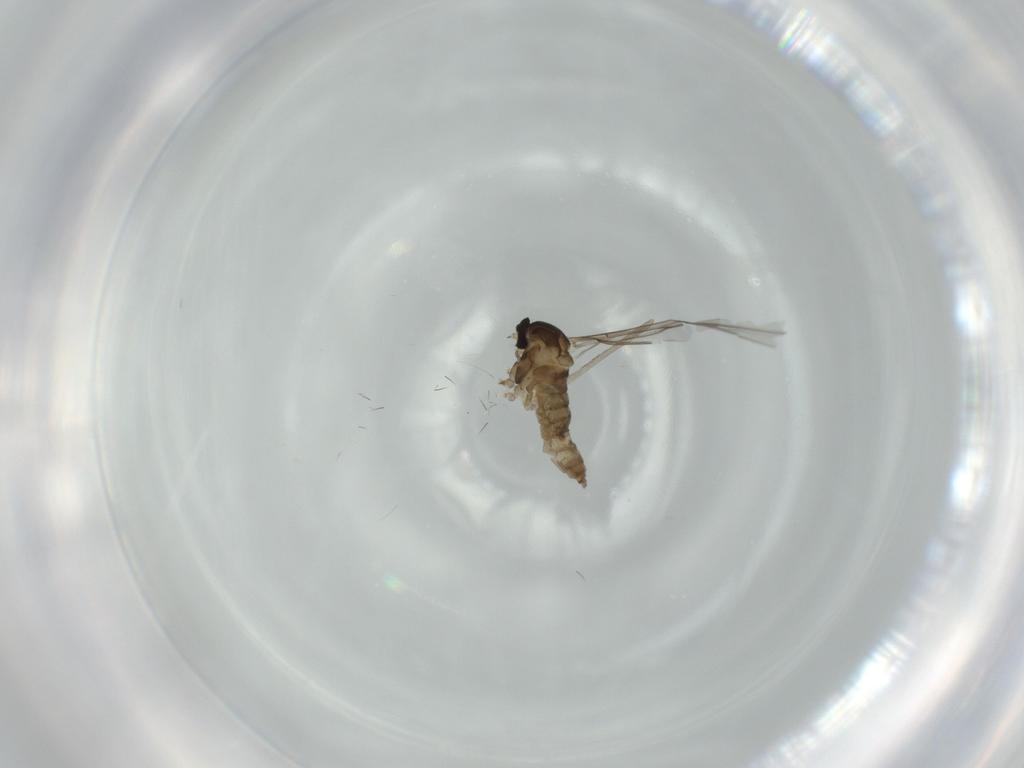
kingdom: Animalia
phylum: Arthropoda
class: Insecta
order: Diptera
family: Cecidomyiidae
